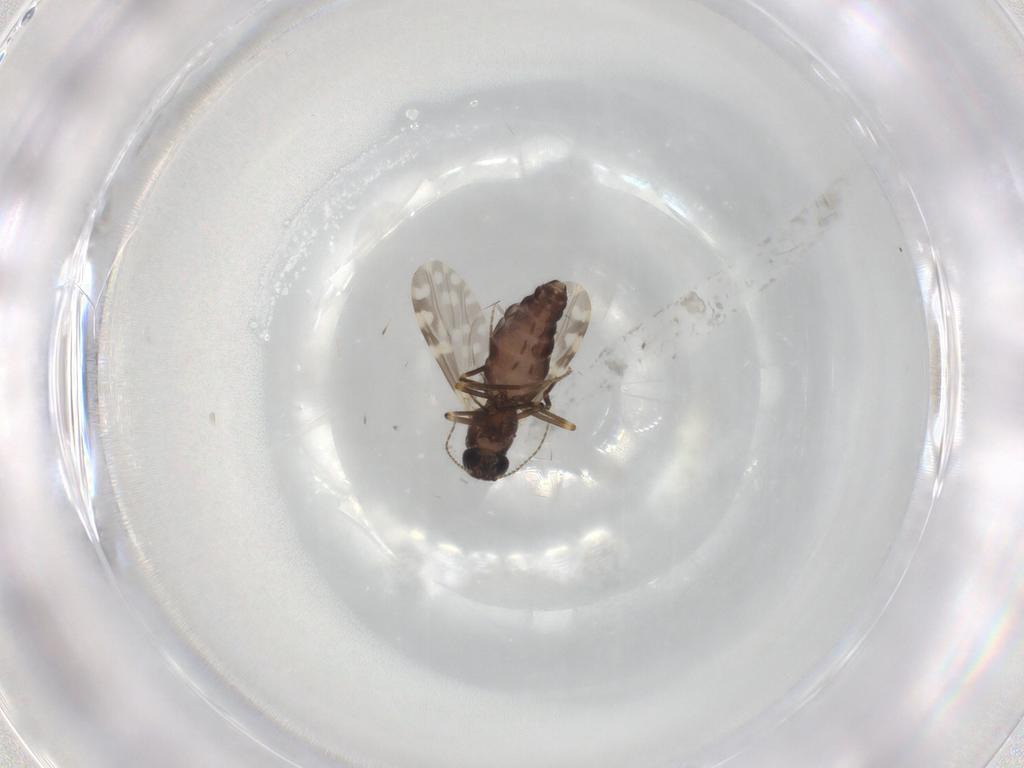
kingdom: Animalia
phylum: Arthropoda
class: Insecta
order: Diptera
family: Ceratopogonidae
